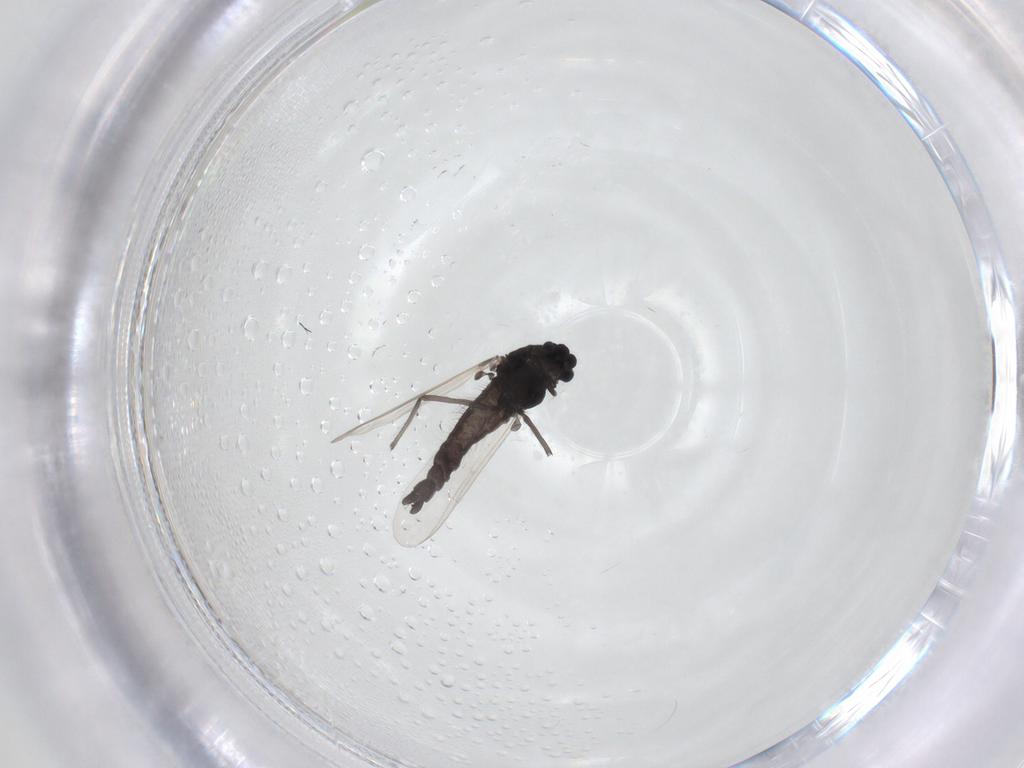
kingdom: Animalia
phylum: Arthropoda
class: Insecta
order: Diptera
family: Chironomidae
